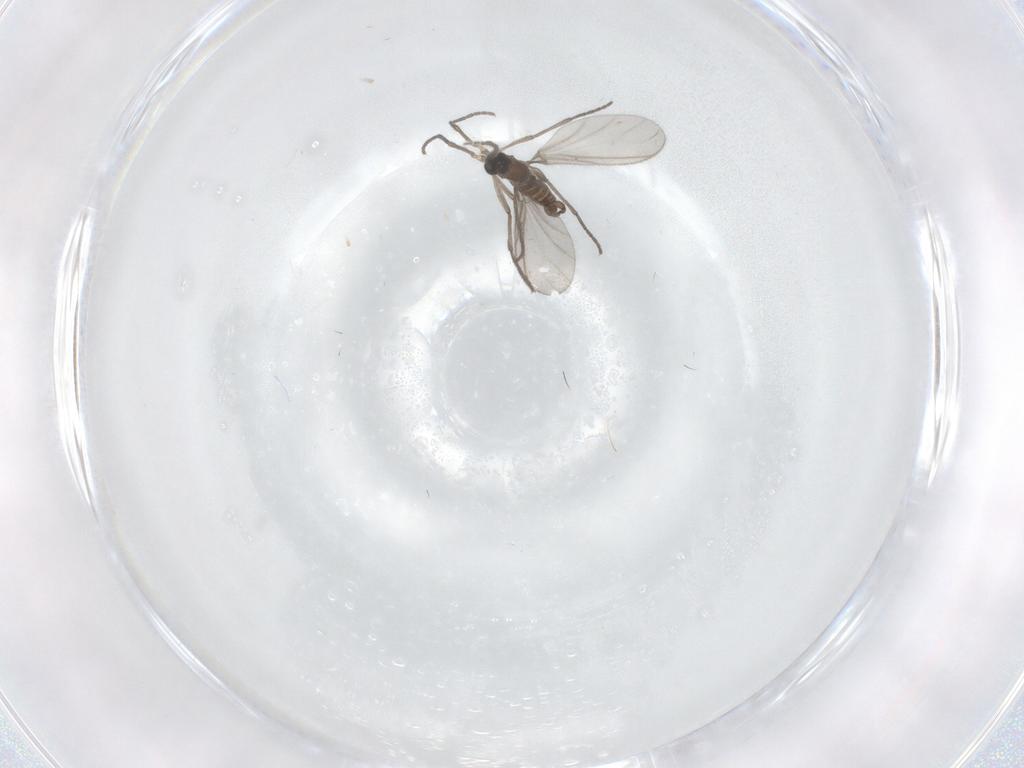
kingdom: Animalia
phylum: Arthropoda
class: Insecta
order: Diptera
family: Sciaridae
